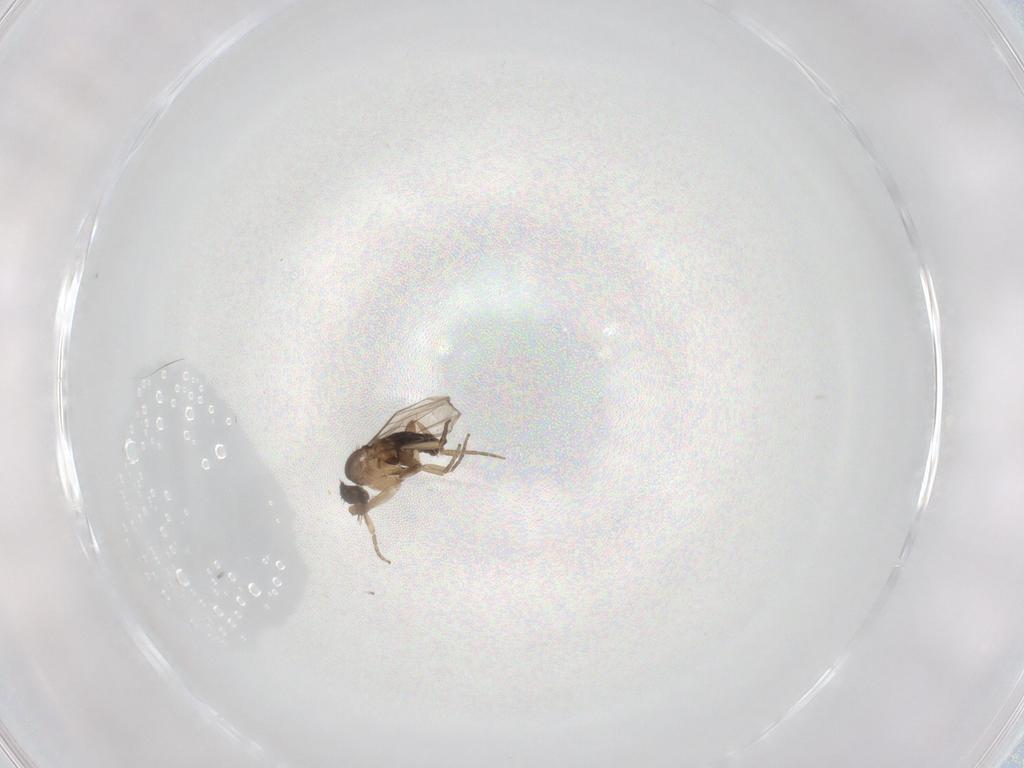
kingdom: Animalia
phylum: Arthropoda
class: Insecta
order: Diptera
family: Phoridae
